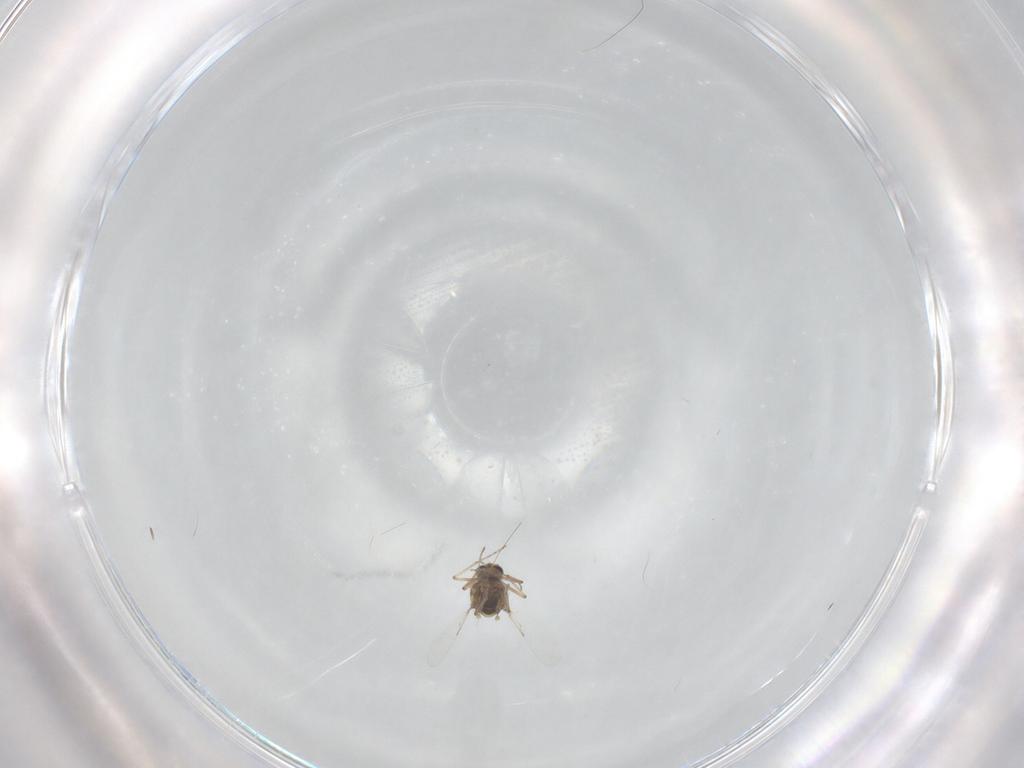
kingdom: Animalia
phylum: Arthropoda
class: Insecta
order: Diptera
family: Ceratopogonidae
